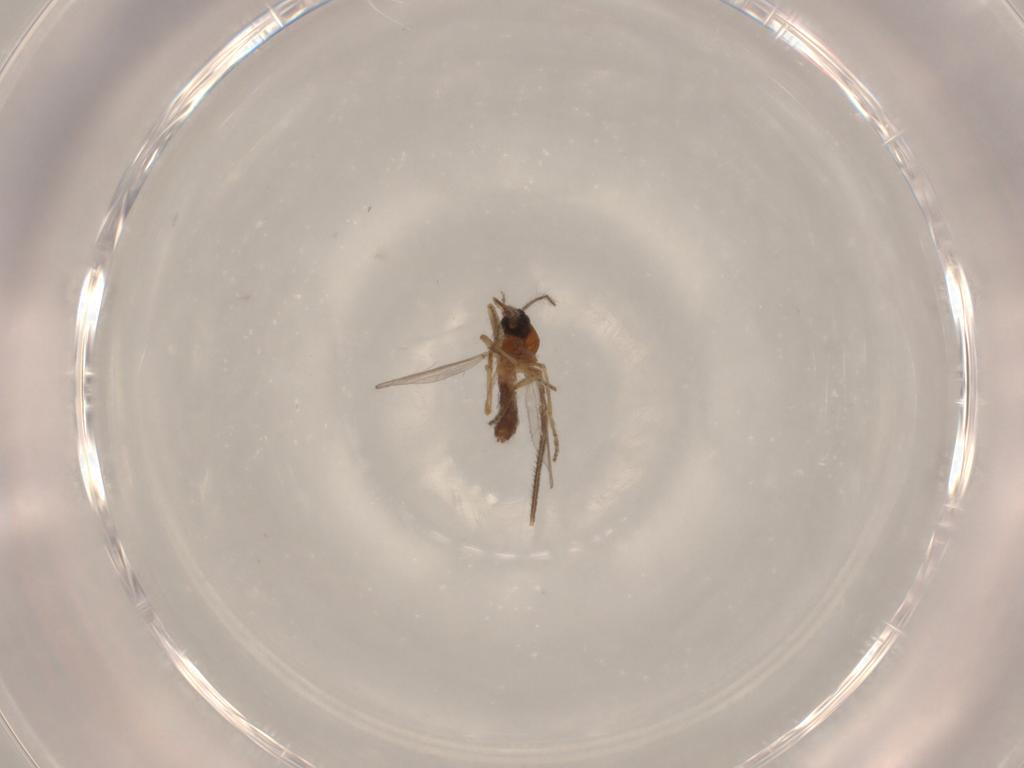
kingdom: Animalia
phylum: Arthropoda
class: Insecta
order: Diptera
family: Ceratopogonidae
